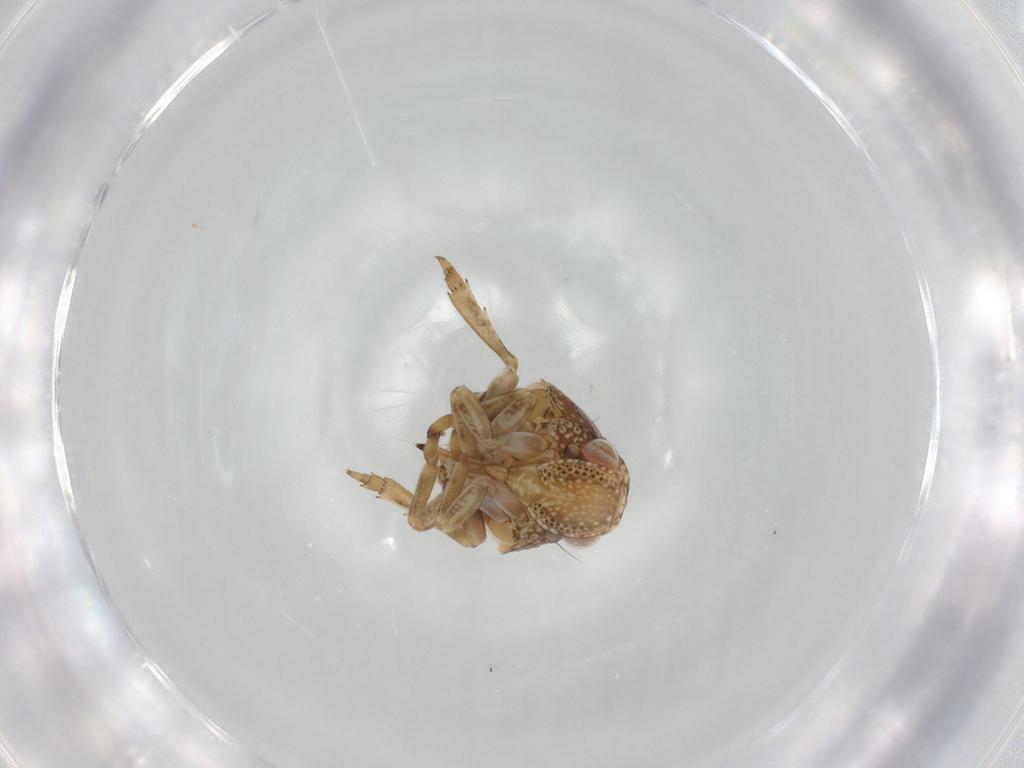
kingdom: Animalia
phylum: Arthropoda
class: Insecta
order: Hemiptera
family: Acanaloniidae
